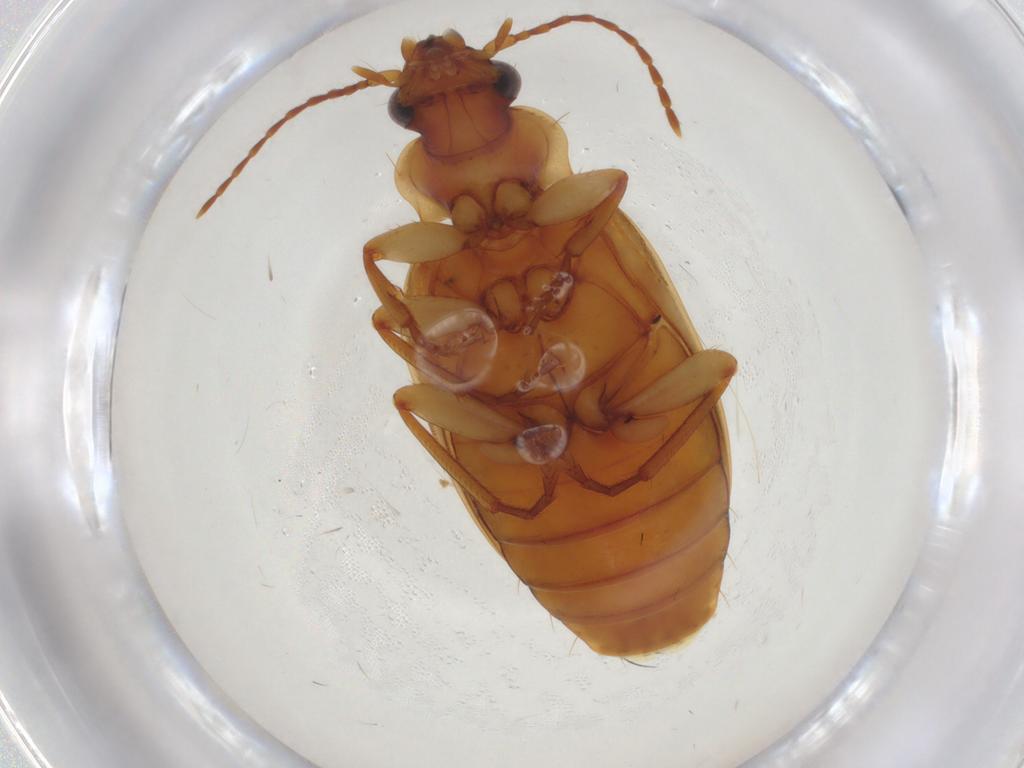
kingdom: Animalia
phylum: Arthropoda
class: Insecta
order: Coleoptera
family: Carabidae
